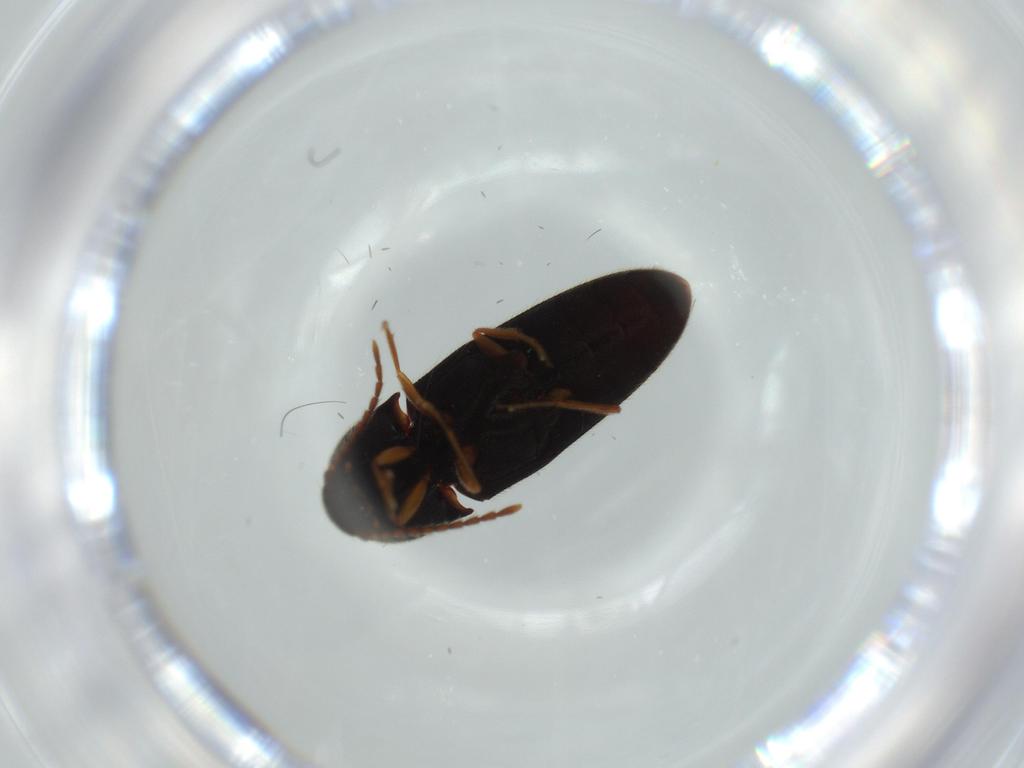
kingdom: Animalia
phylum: Arthropoda
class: Insecta
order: Coleoptera
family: Elateridae
